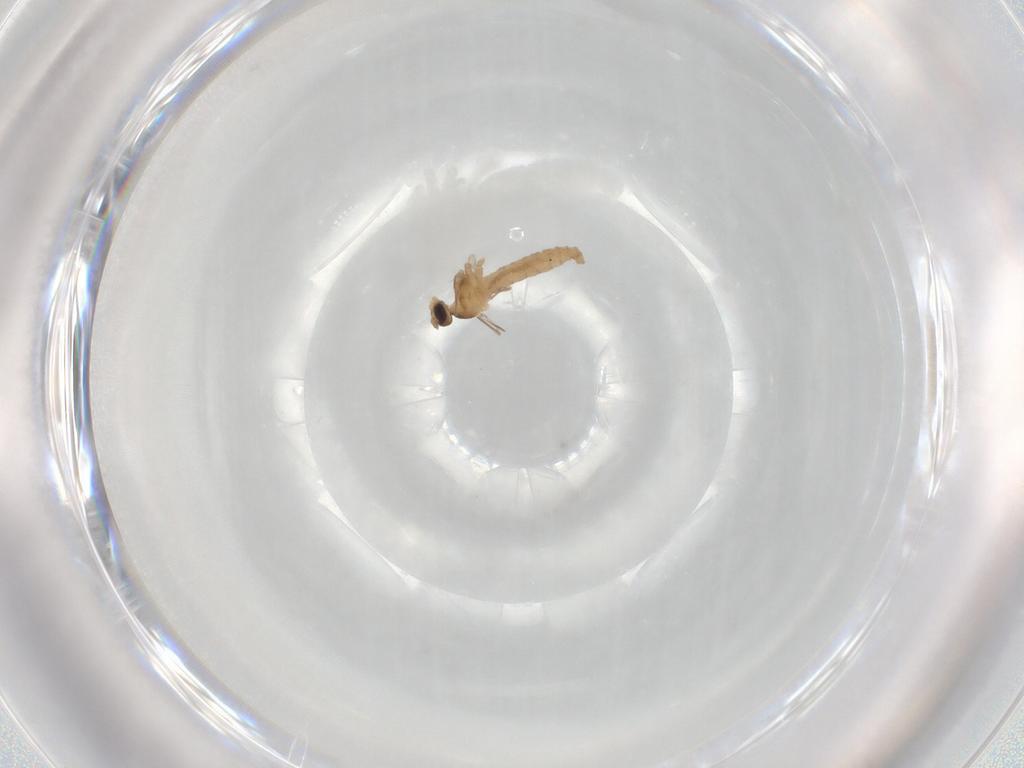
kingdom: Animalia
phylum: Arthropoda
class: Insecta
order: Diptera
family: Cecidomyiidae
